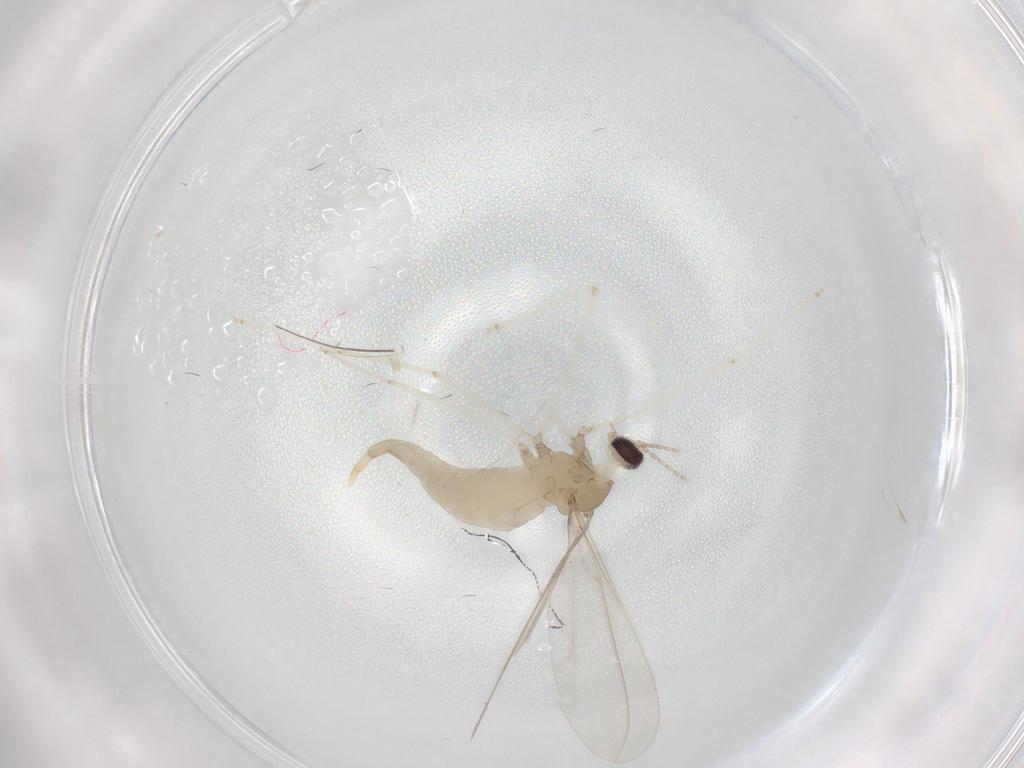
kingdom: Animalia
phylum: Arthropoda
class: Insecta
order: Diptera
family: Cecidomyiidae
